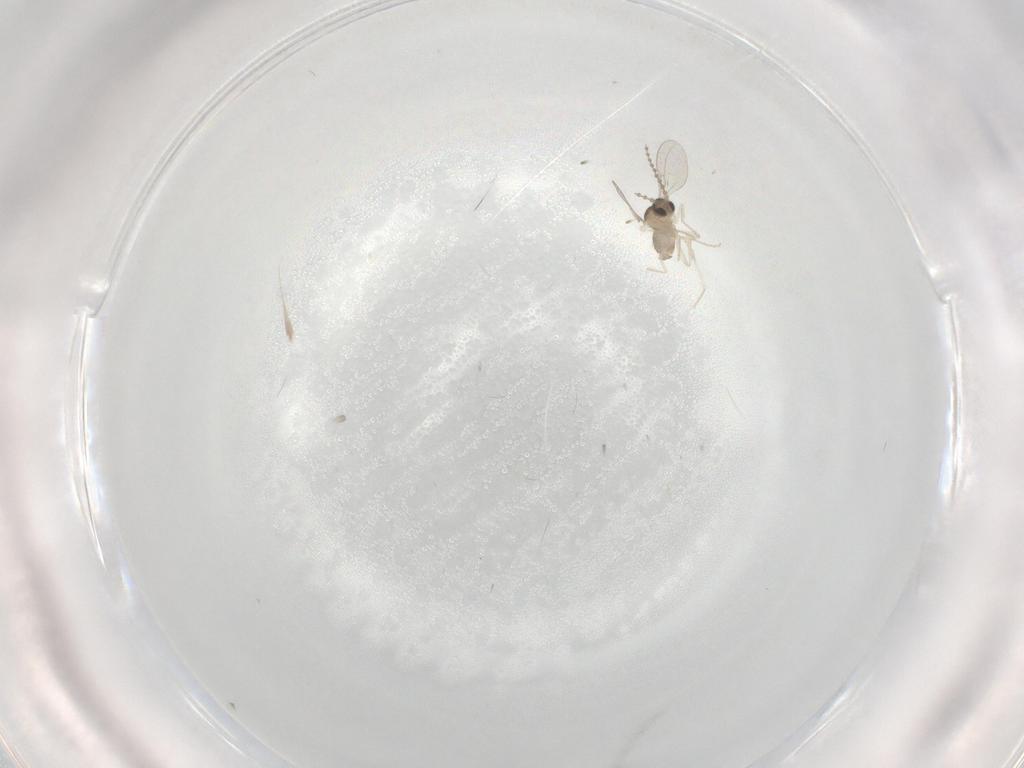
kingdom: Animalia
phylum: Arthropoda
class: Insecta
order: Diptera
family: Cecidomyiidae
